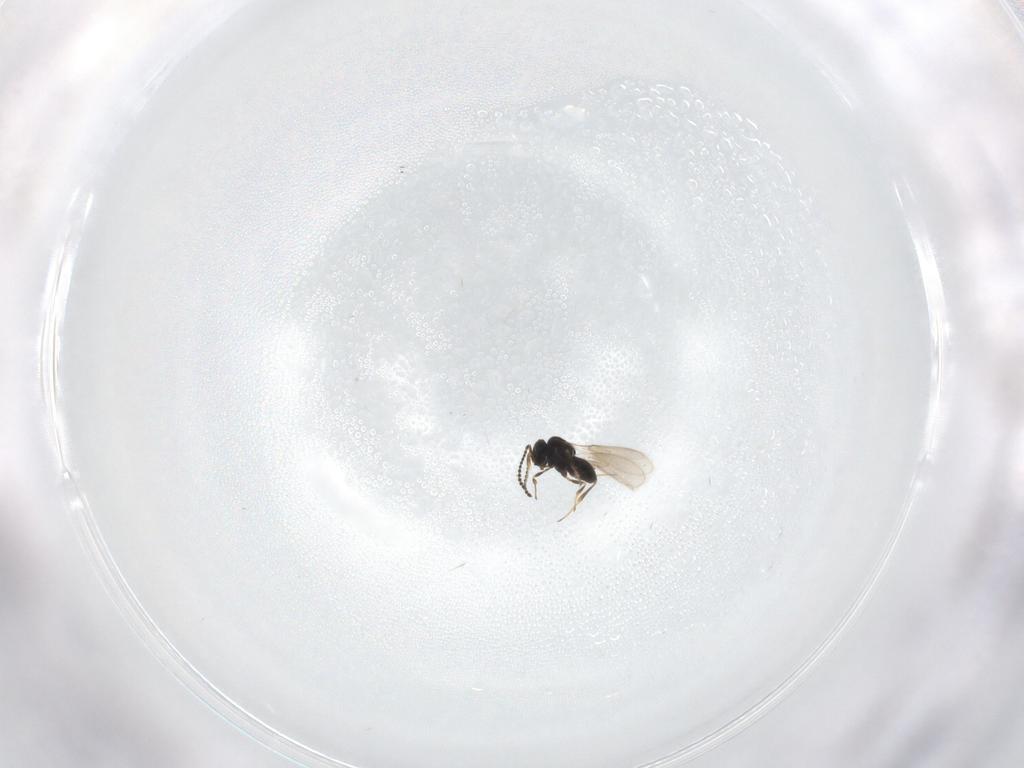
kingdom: Animalia
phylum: Arthropoda
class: Insecta
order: Hymenoptera
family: Scelionidae
